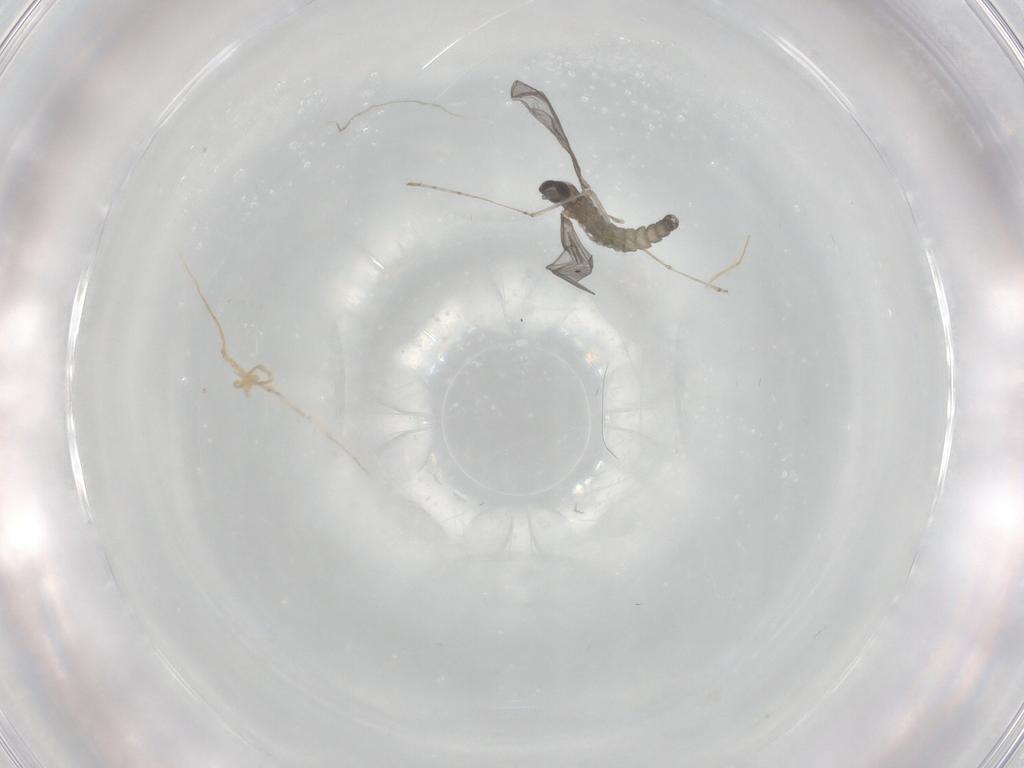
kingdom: Animalia
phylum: Arthropoda
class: Insecta
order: Diptera
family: Cecidomyiidae
